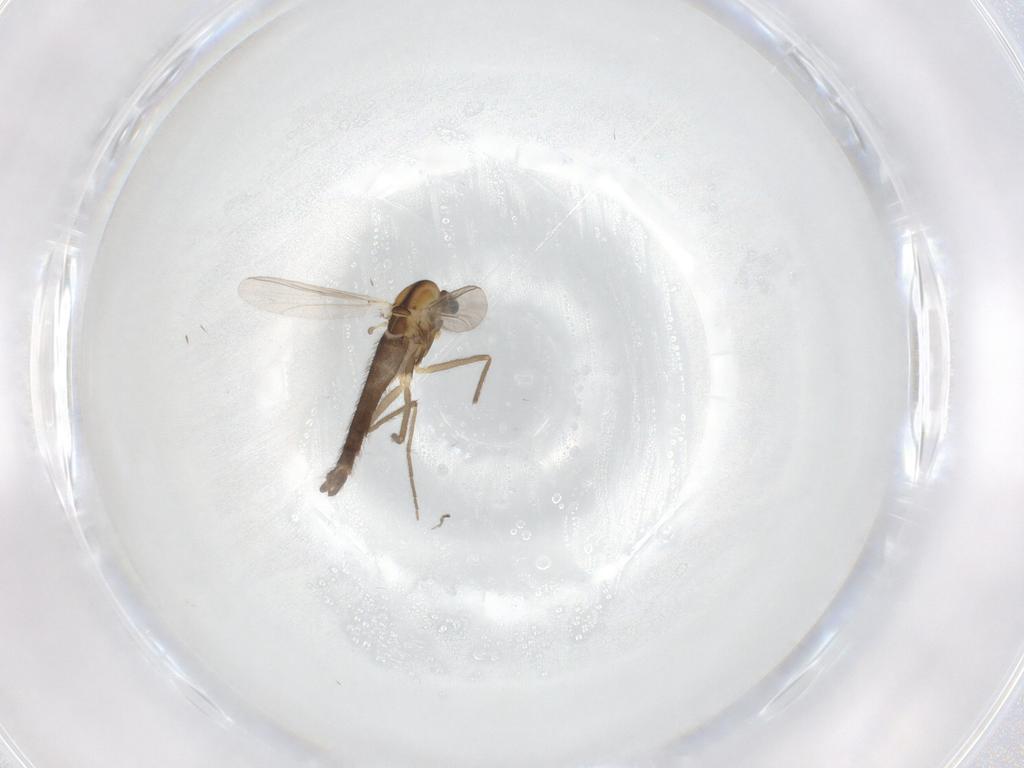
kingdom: Animalia
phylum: Arthropoda
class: Insecta
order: Diptera
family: Chironomidae
